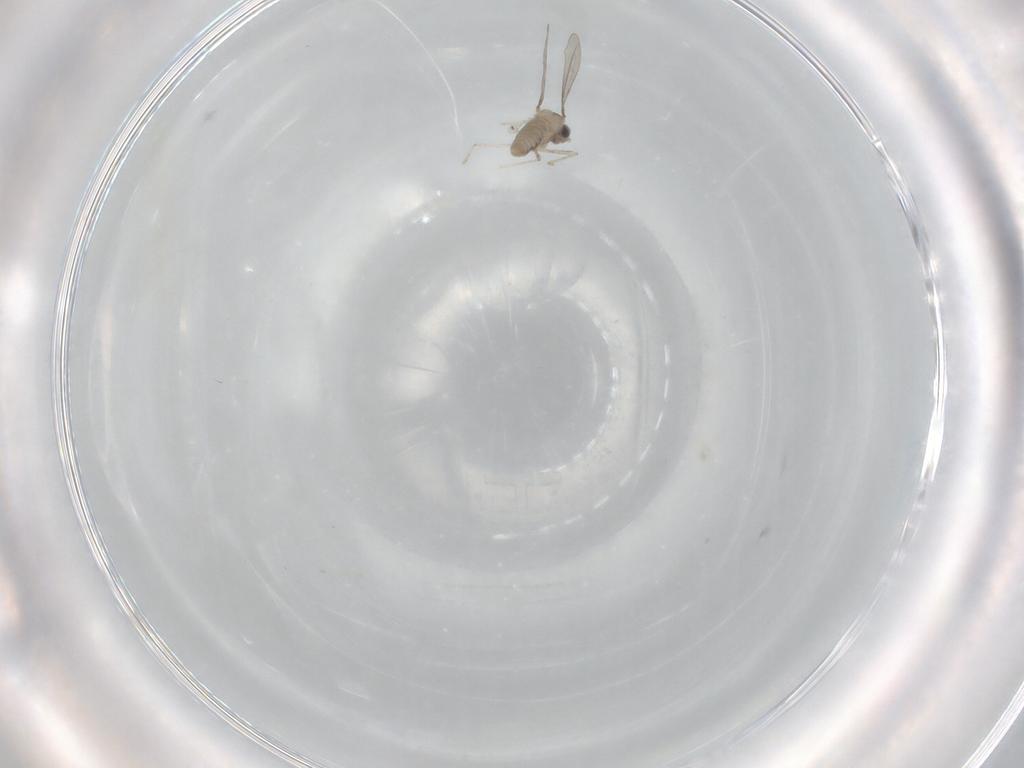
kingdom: Animalia
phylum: Arthropoda
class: Insecta
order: Diptera
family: Cecidomyiidae
